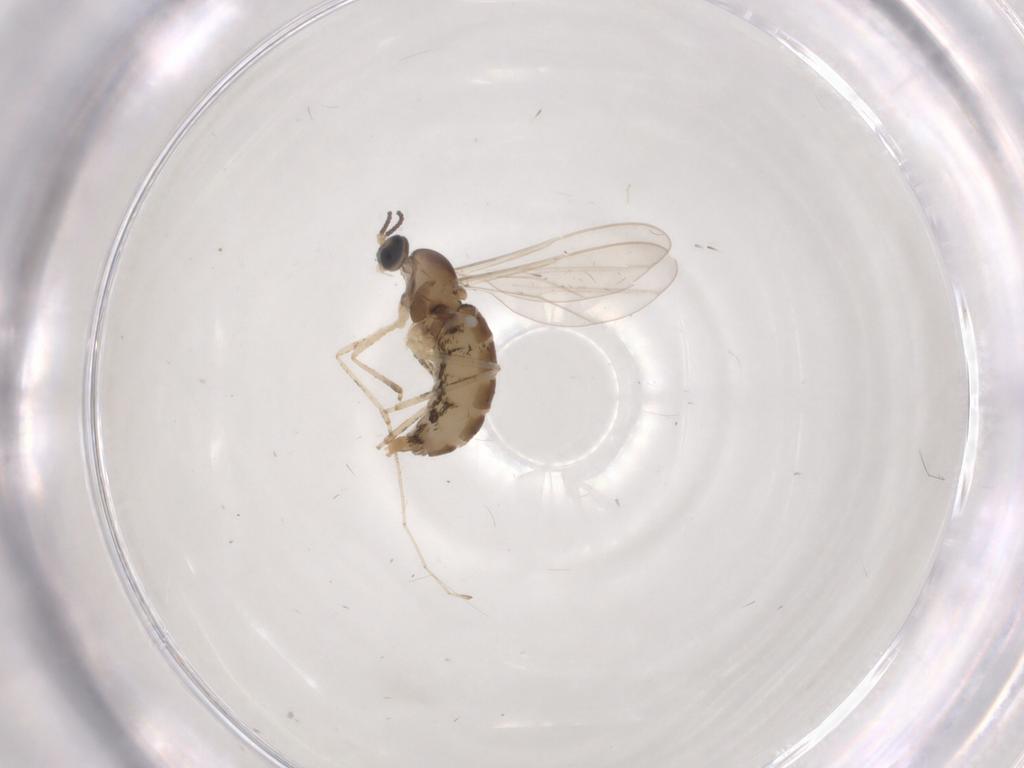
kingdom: Animalia
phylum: Arthropoda
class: Insecta
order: Diptera
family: Cecidomyiidae
